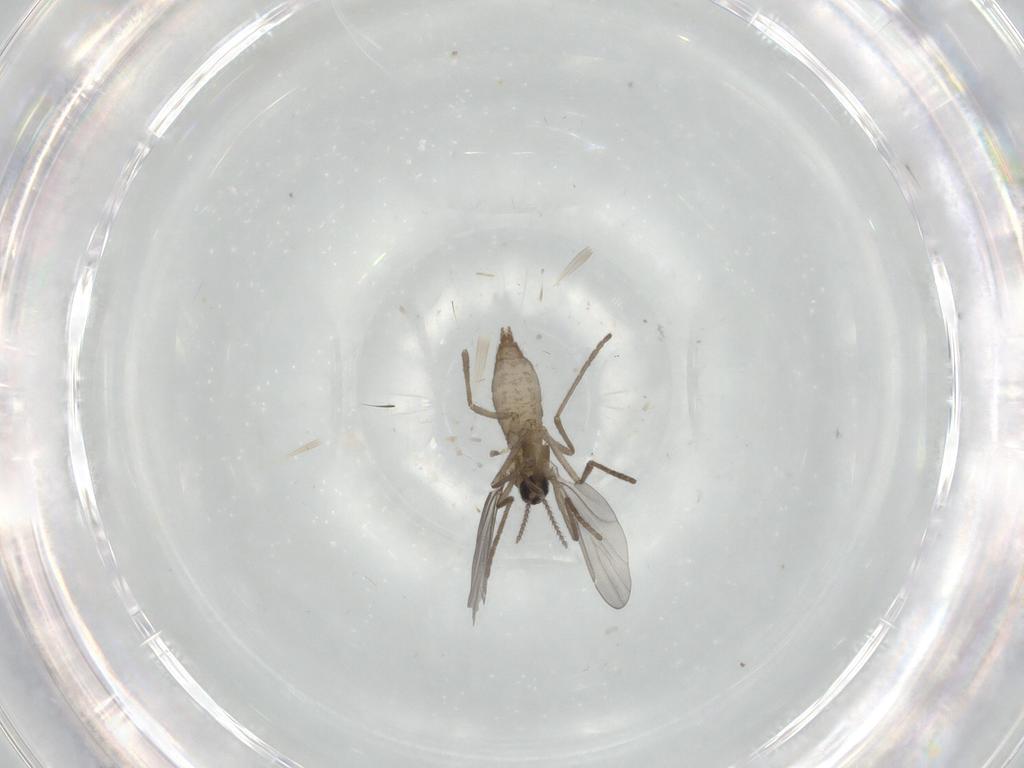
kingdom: Animalia
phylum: Arthropoda
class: Insecta
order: Diptera
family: Cecidomyiidae
